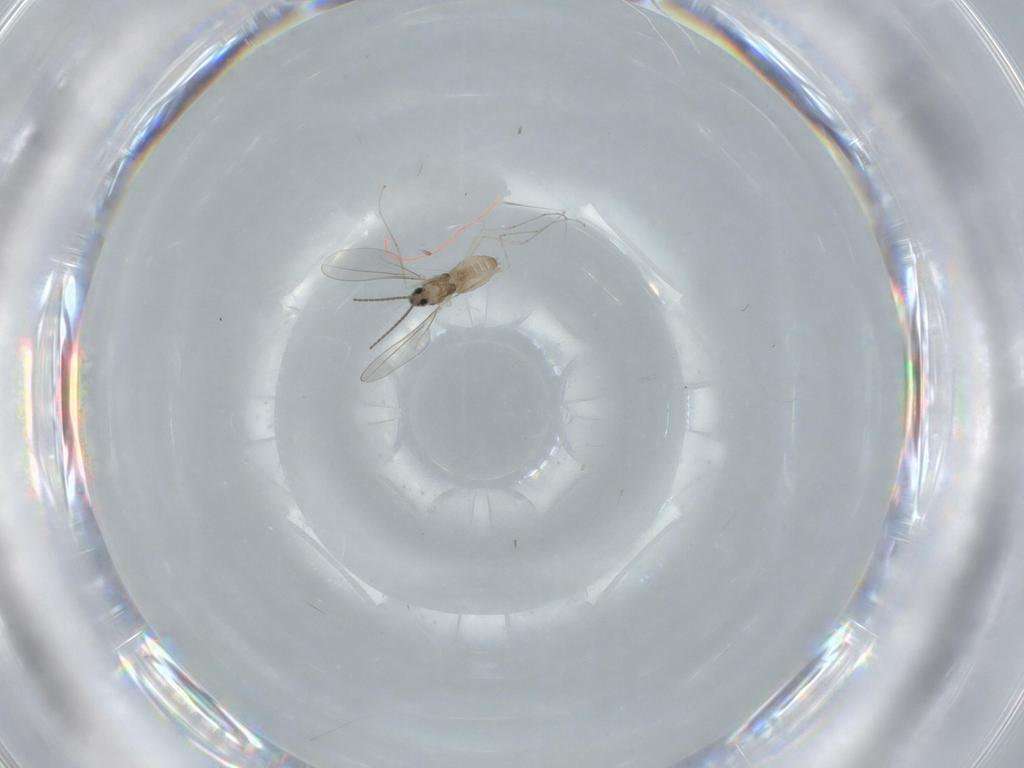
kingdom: Animalia
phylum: Arthropoda
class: Insecta
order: Diptera
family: Cecidomyiidae
